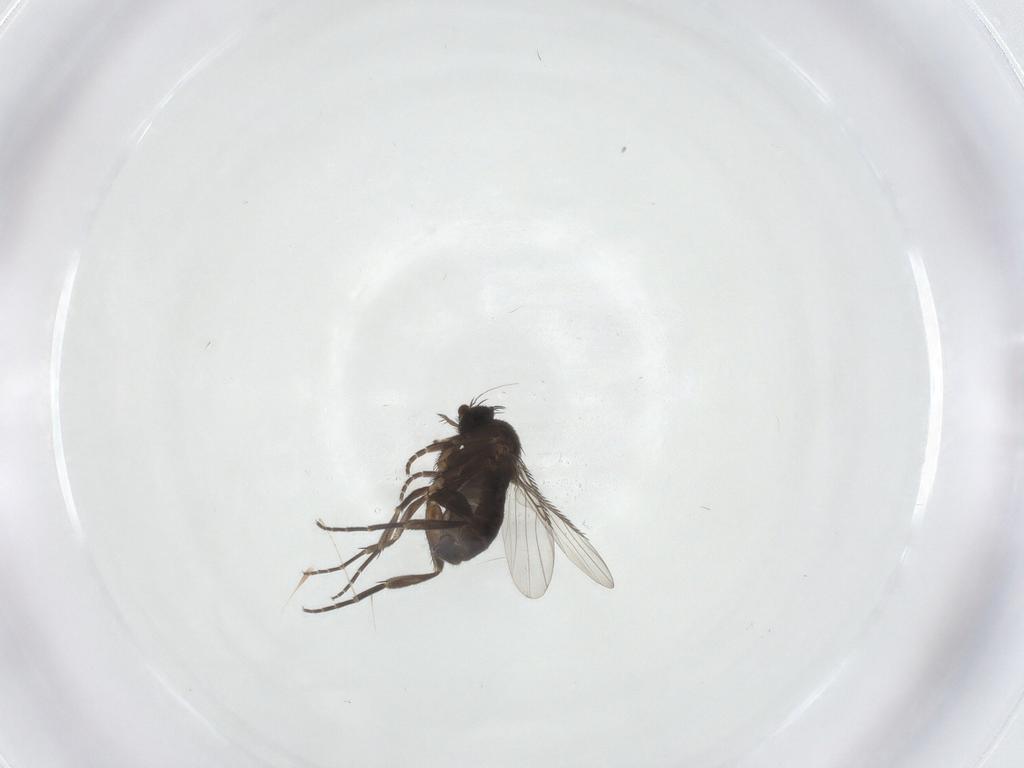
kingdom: Animalia
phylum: Arthropoda
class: Insecta
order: Diptera
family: Phoridae
